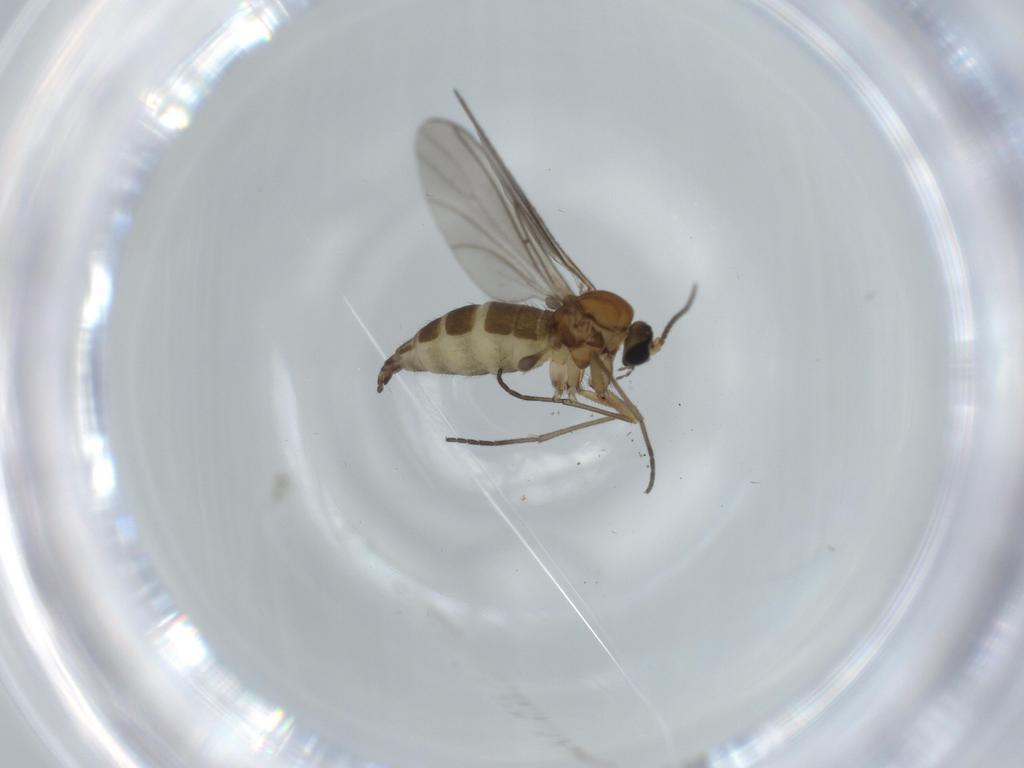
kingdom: Animalia
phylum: Arthropoda
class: Insecta
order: Diptera
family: Sciaridae
